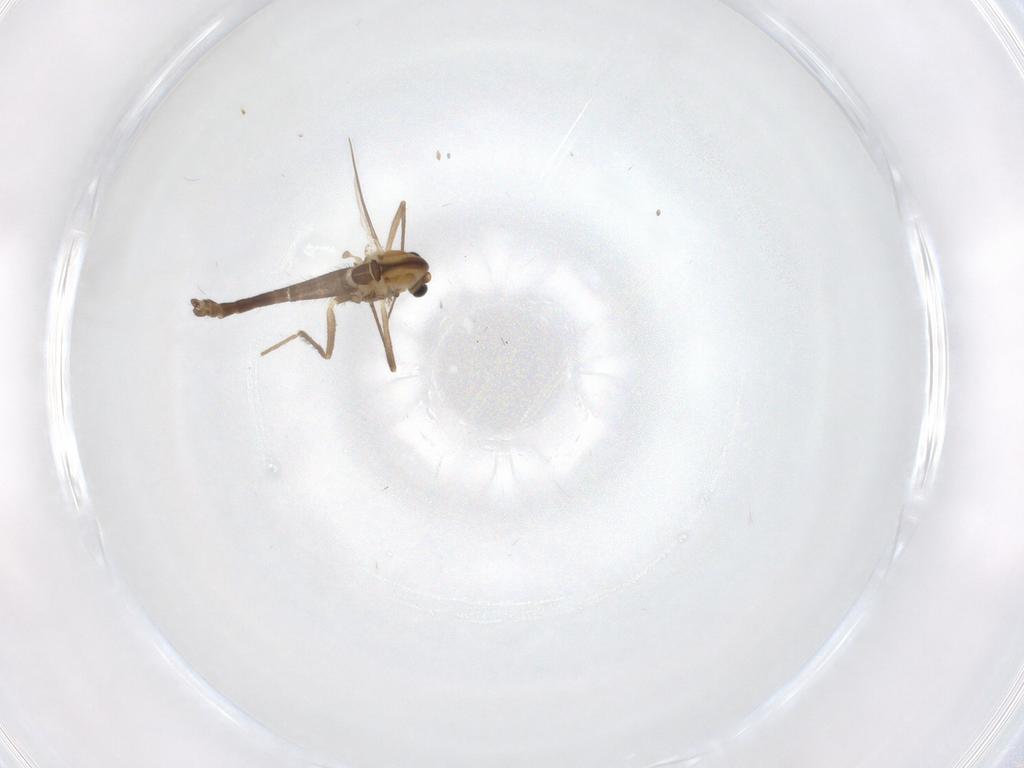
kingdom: Animalia
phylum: Arthropoda
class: Insecta
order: Diptera
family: Chironomidae
